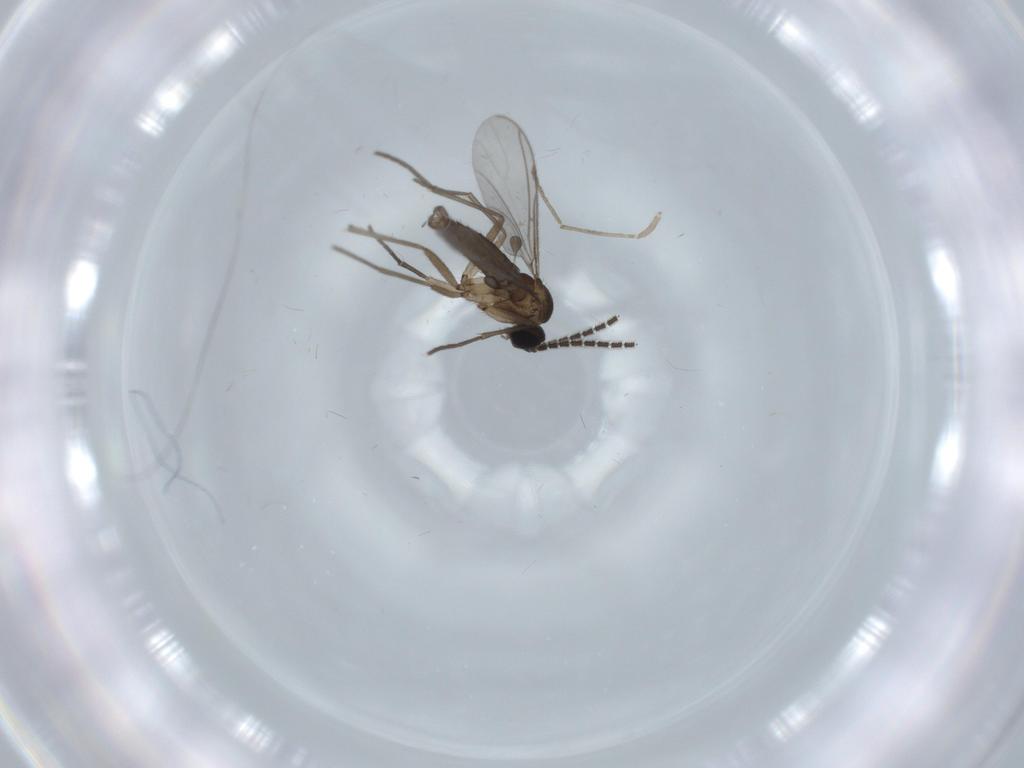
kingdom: Animalia
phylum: Arthropoda
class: Insecta
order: Diptera
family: Sciaridae
